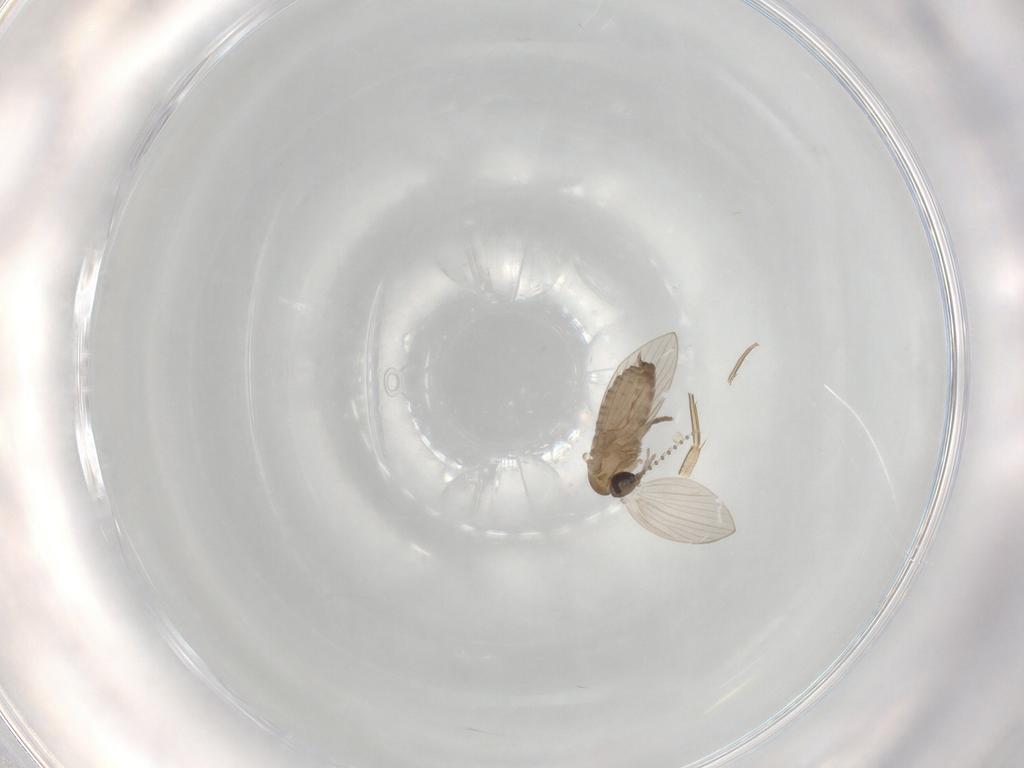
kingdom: Animalia
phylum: Arthropoda
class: Insecta
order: Diptera
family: Psychodidae
